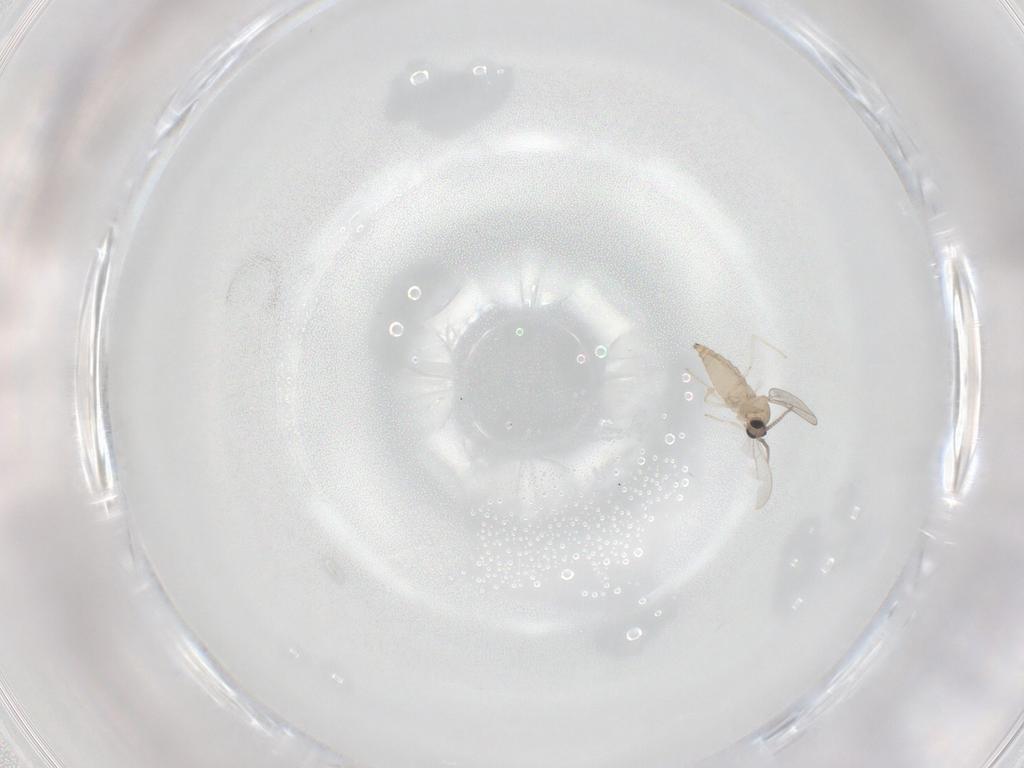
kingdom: Animalia
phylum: Arthropoda
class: Insecta
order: Diptera
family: Cecidomyiidae
